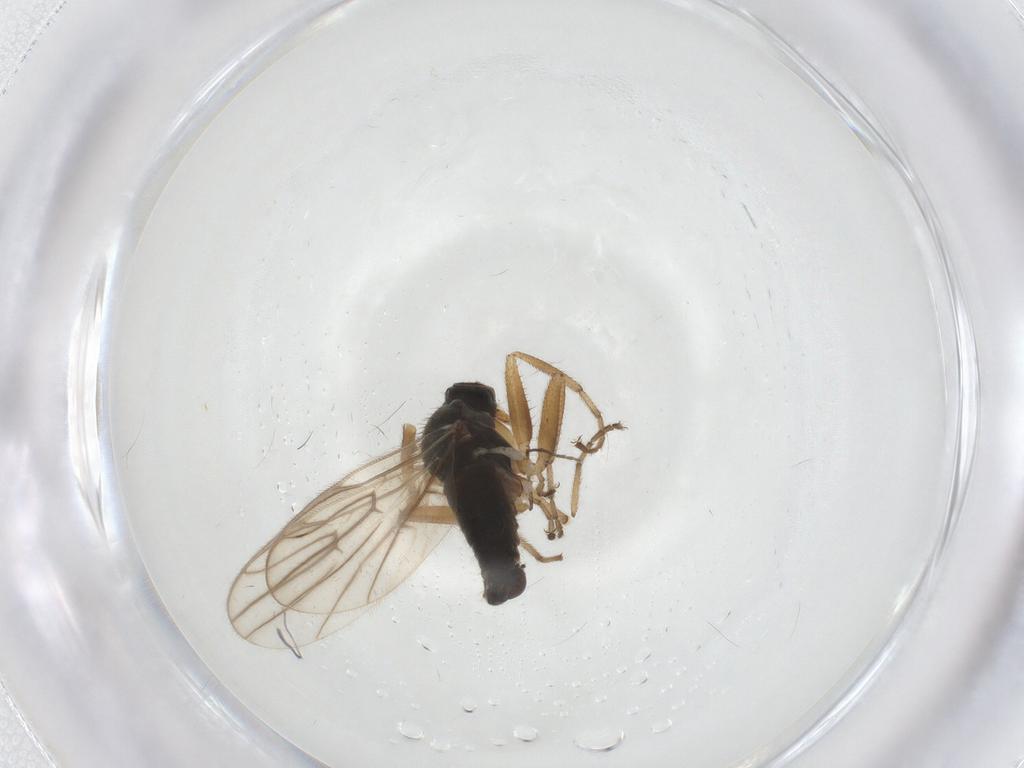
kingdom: Animalia
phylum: Arthropoda
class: Insecta
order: Diptera
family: Hybotidae
